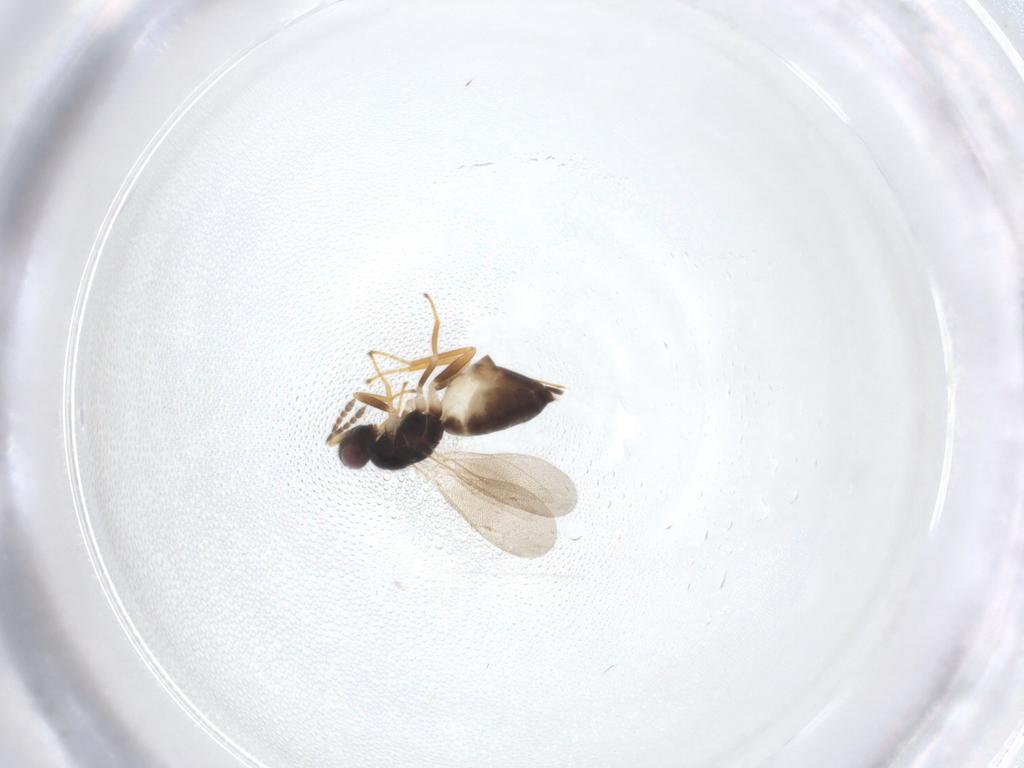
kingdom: Animalia
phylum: Arthropoda
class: Insecta
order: Hymenoptera
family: Eulophidae
